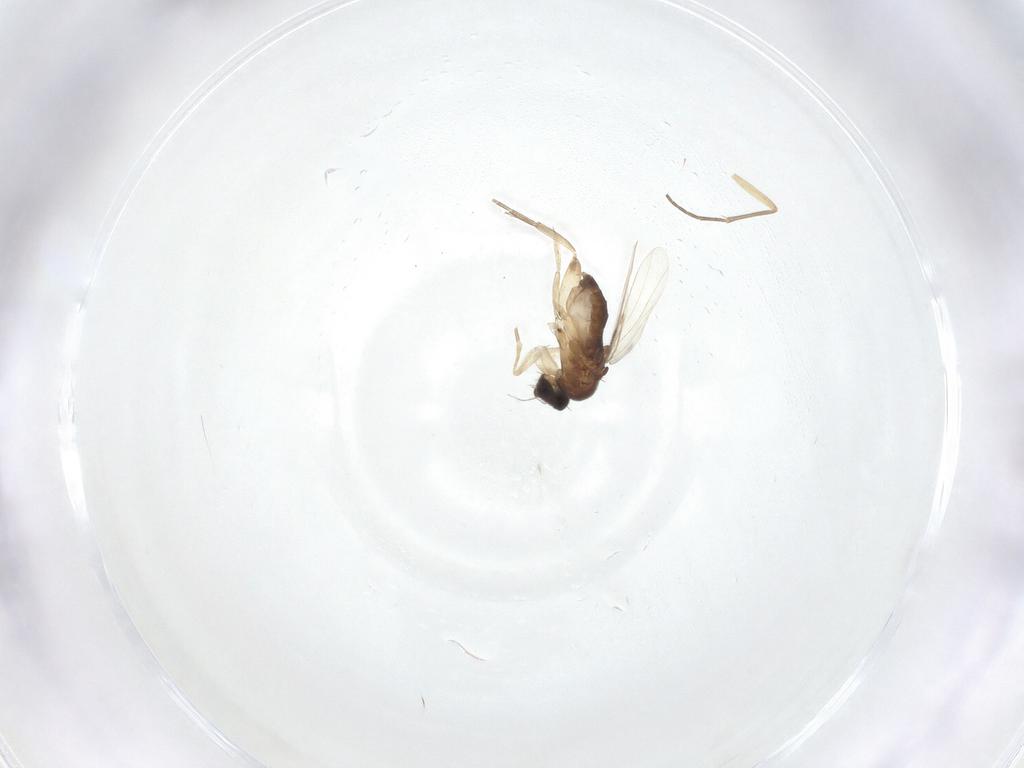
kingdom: Animalia
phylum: Arthropoda
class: Insecta
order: Diptera
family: Phoridae
